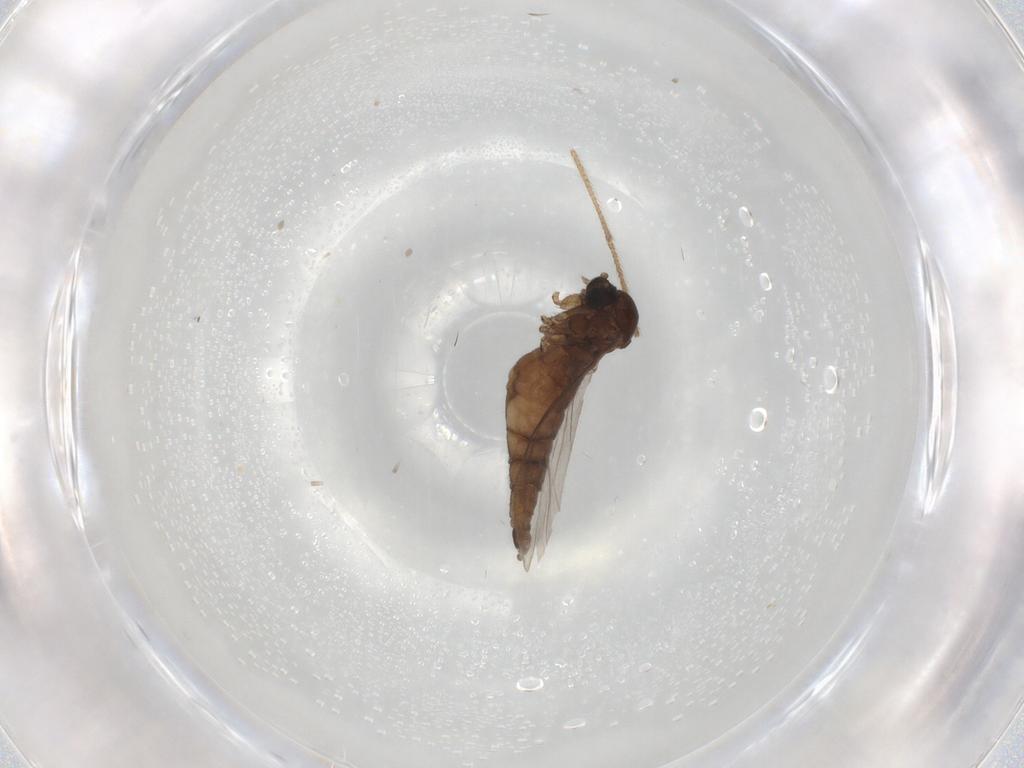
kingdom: Animalia
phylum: Arthropoda
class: Insecta
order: Diptera
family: Sciaridae
